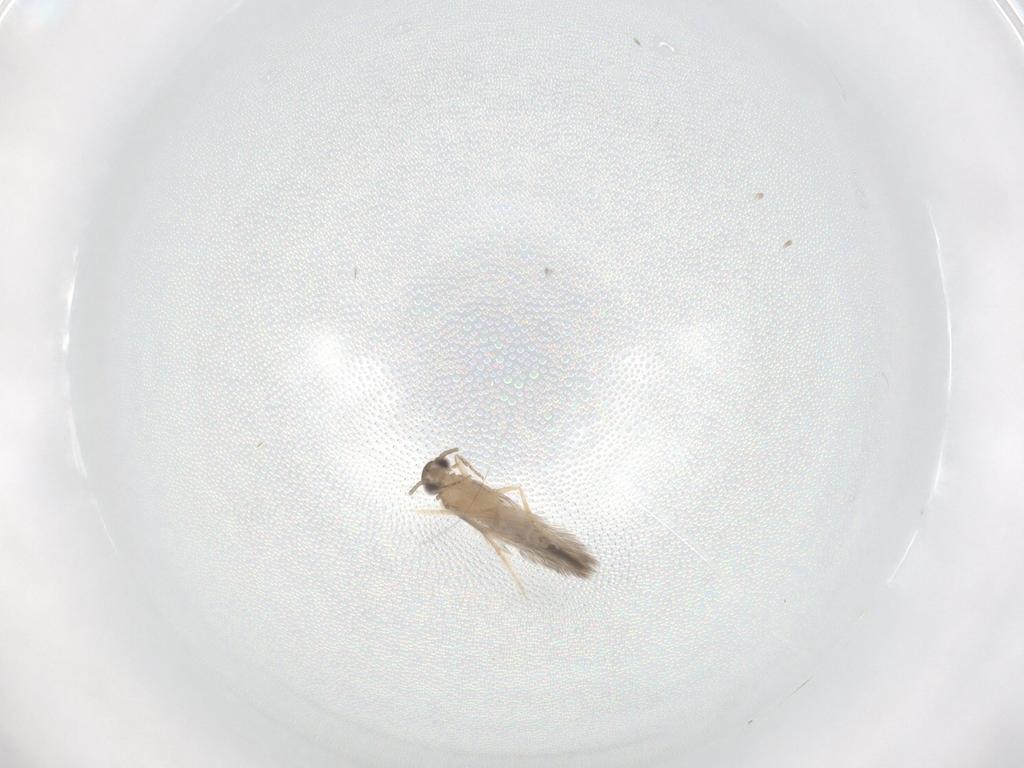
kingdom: Animalia
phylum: Arthropoda
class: Insecta
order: Trichoptera
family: Hydroptilidae
